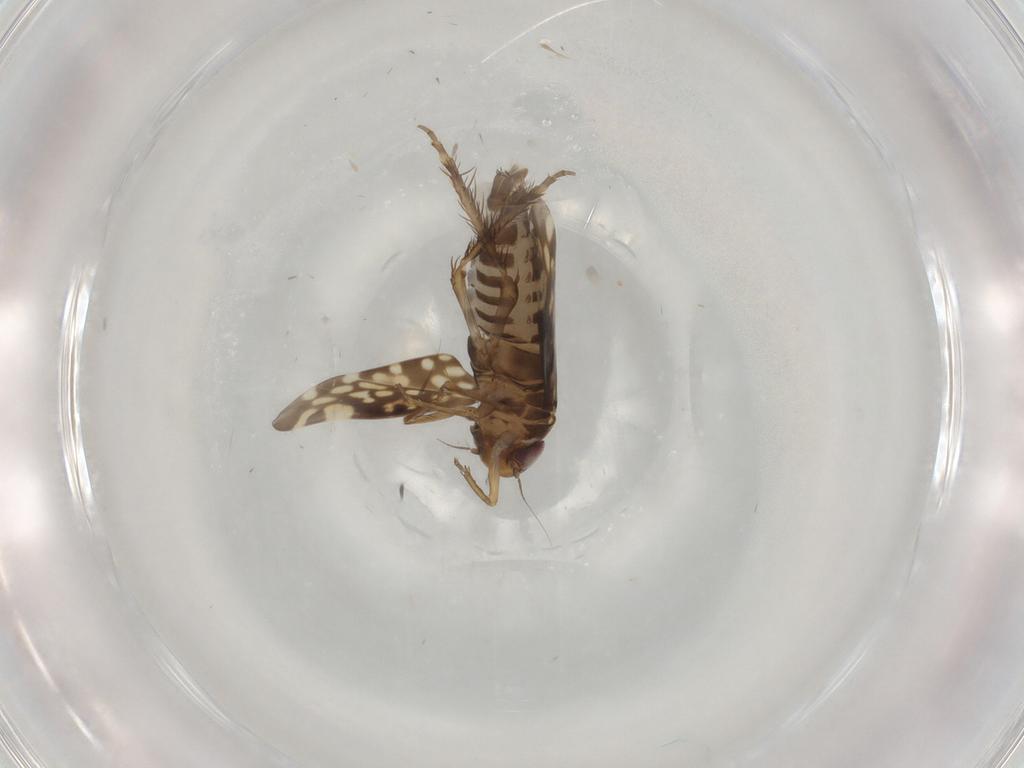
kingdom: Animalia
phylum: Arthropoda
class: Insecta
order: Hemiptera
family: Cicadellidae
